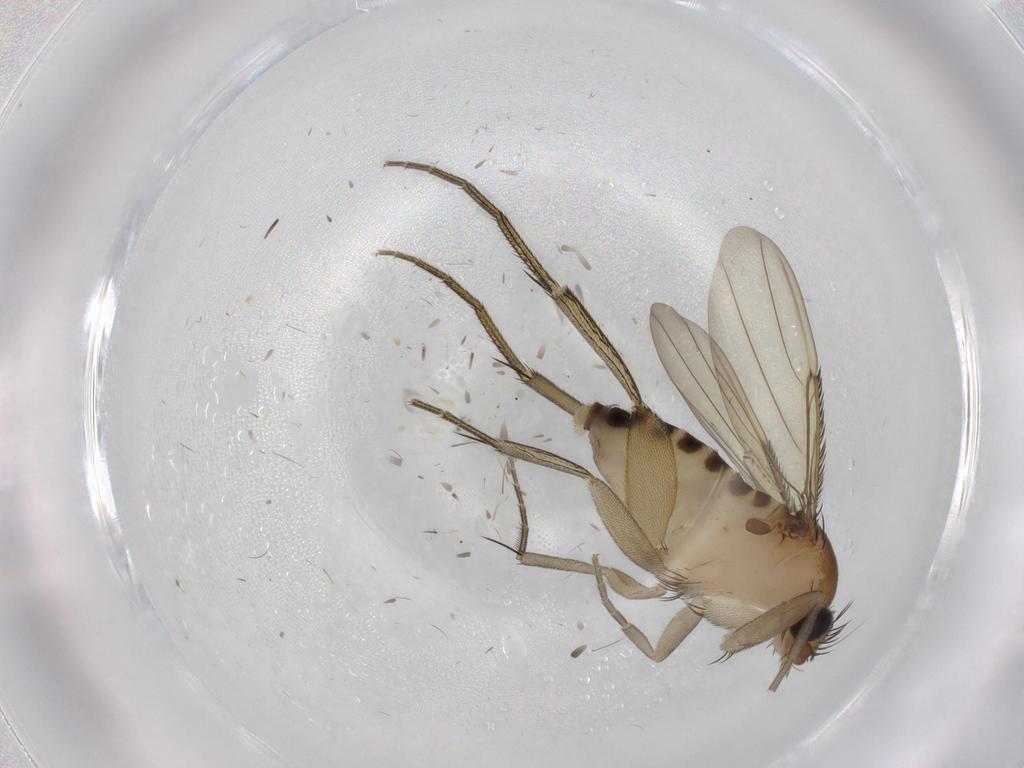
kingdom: Animalia
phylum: Arthropoda
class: Insecta
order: Diptera
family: Phoridae
